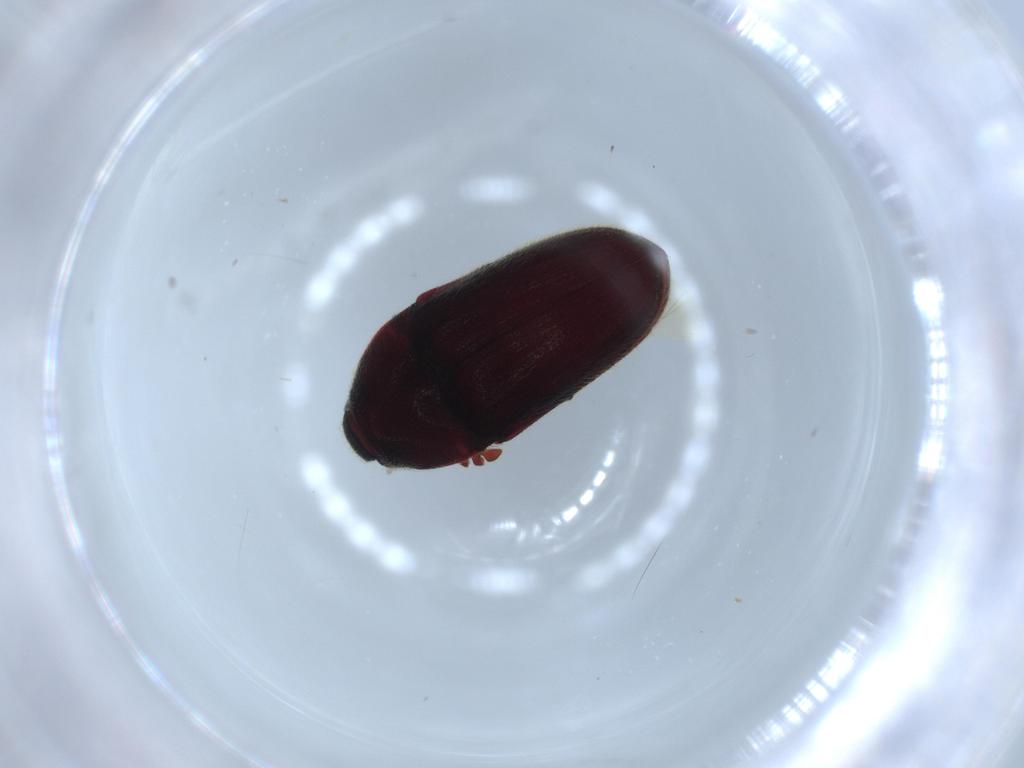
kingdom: Animalia
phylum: Arthropoda
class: Insecta
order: Coleoptera
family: Throscidae
